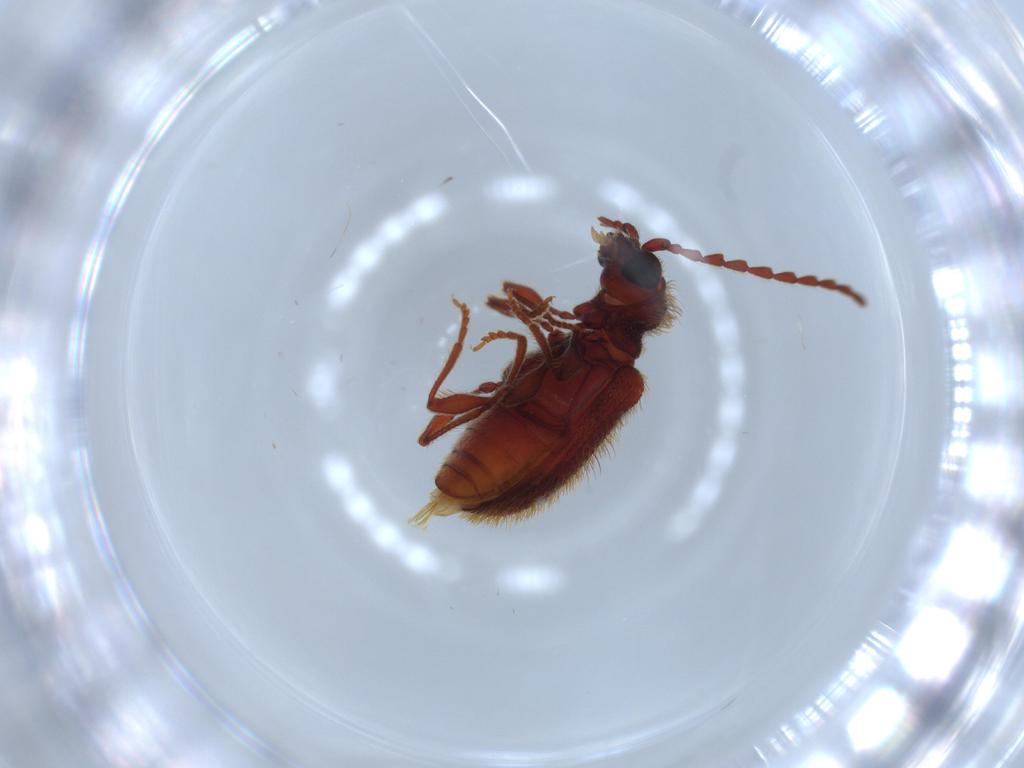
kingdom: Animalia
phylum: Arthropoda
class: Insecta
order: Coleoptera
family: Ptinidae
